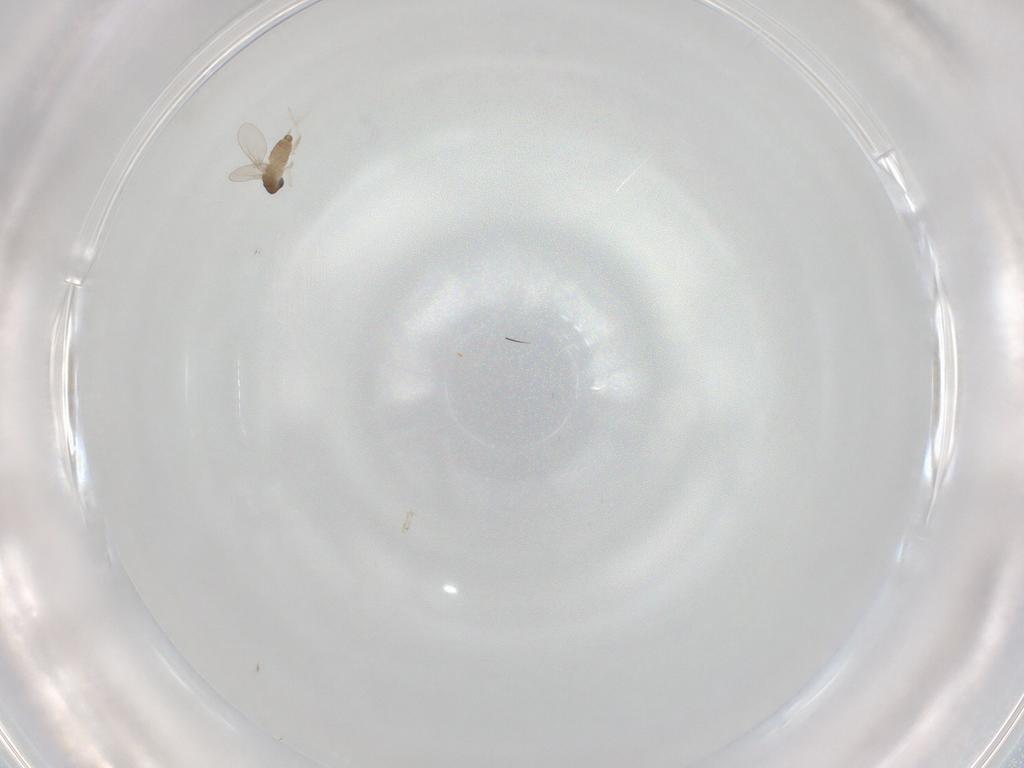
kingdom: Animalia
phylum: Arthropoda
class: Insecta
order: Diptera
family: Cecidomyiidae
